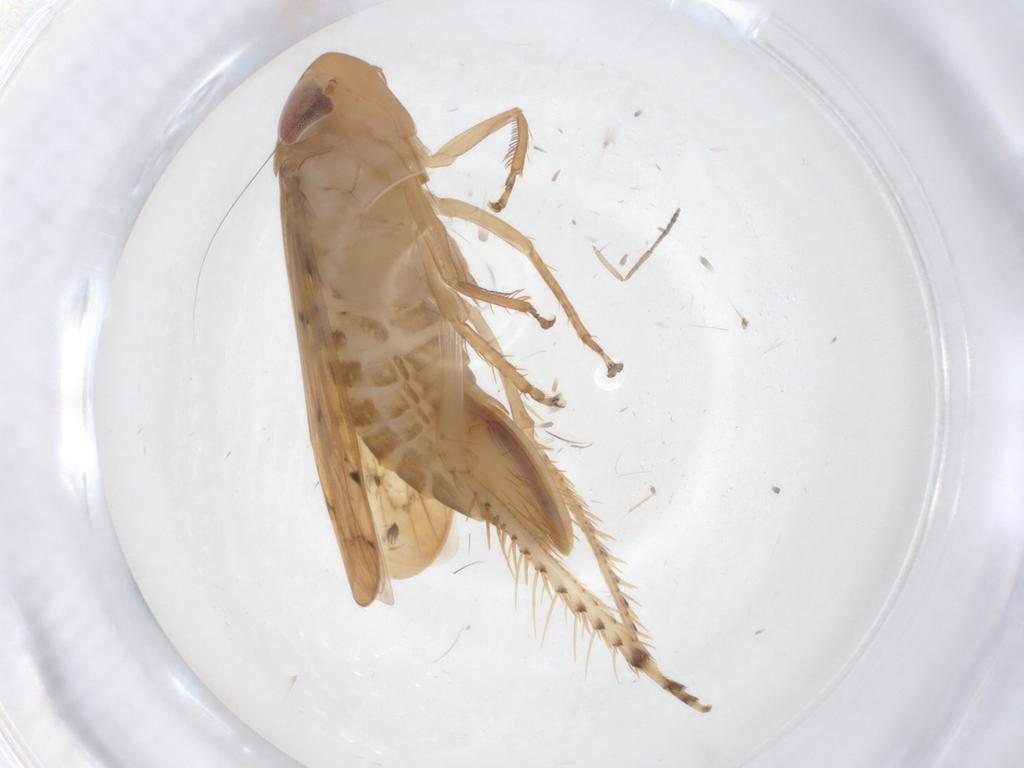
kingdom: Animalia
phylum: Arthropoda
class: Insecta
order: Hemiptera
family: Cicadellidae
